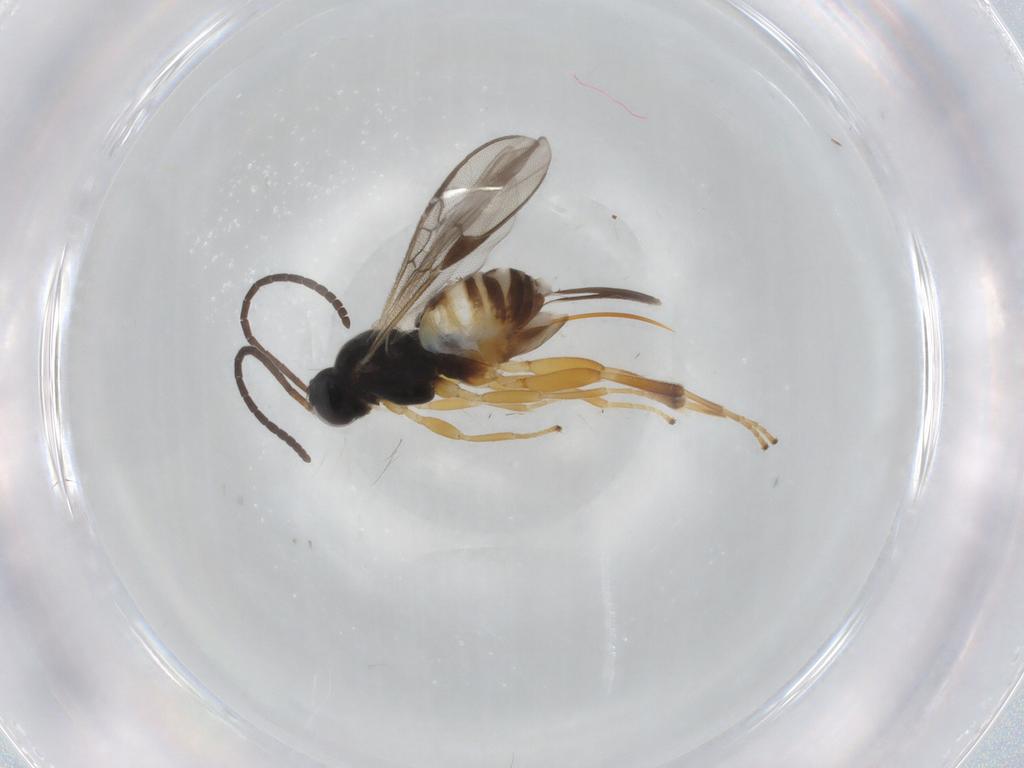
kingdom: Animalia
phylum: Arthropoda
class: Insecta
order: Hymenoptera
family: Braconidae
